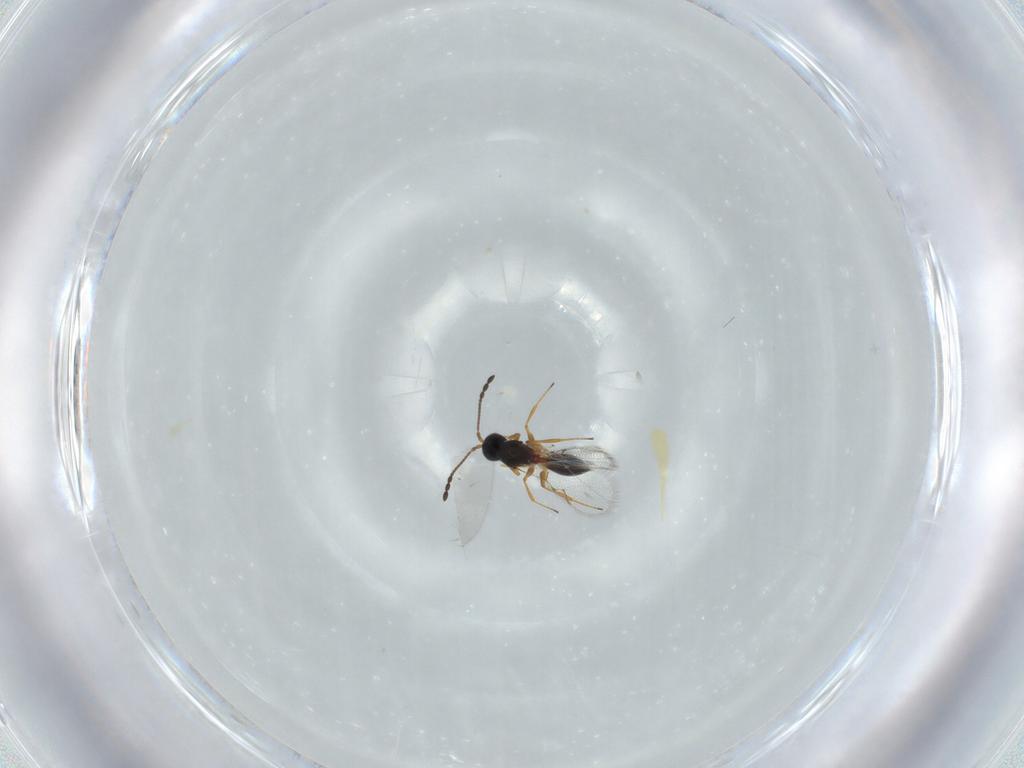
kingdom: Animalia
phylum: Arthropoda
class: Insecta
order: Hymenoptera
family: Figitidae
